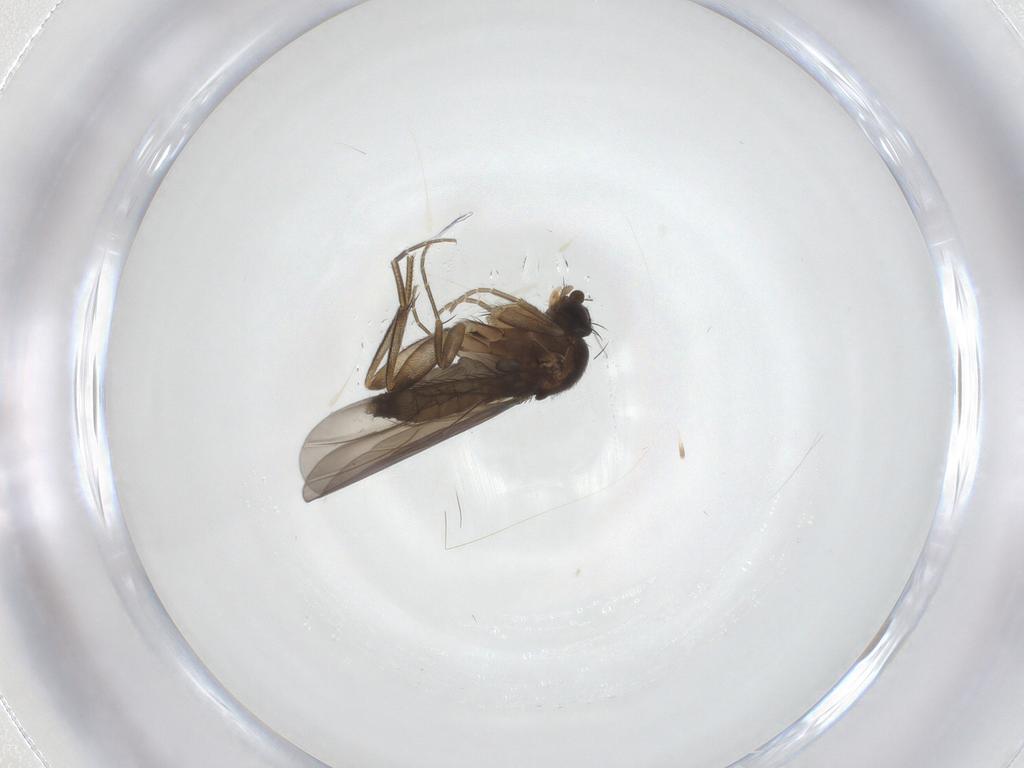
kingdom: Animalia
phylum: Arthropoda
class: Insecta
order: Diptera
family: Phoridae
